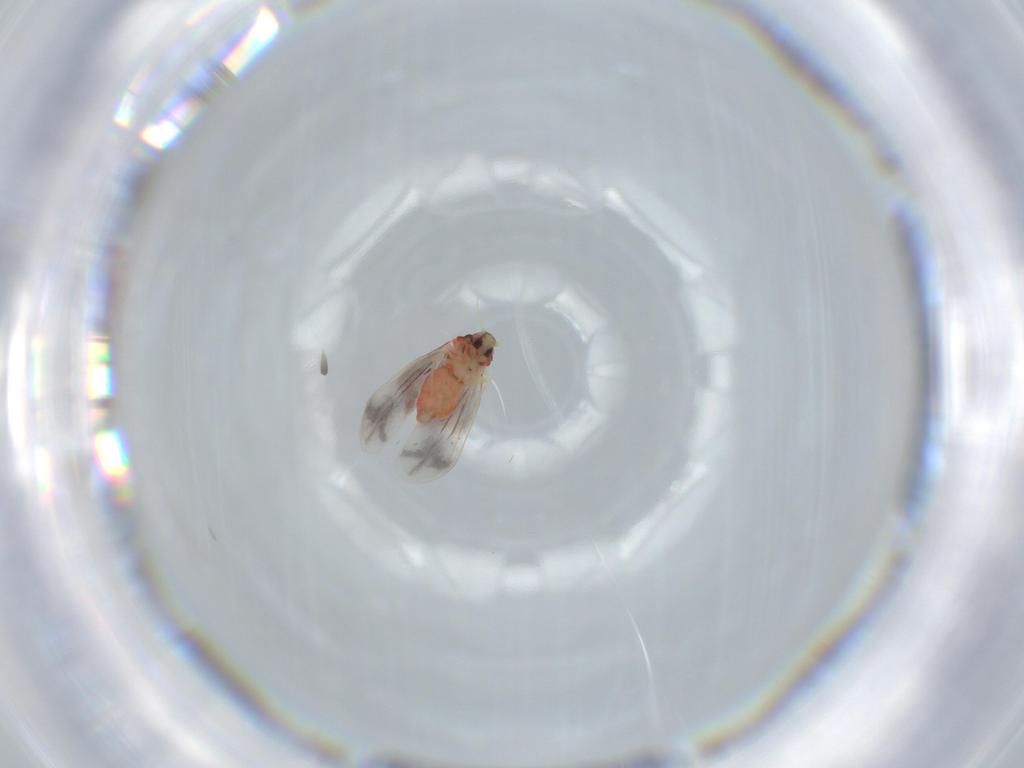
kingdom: Animalia
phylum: Arthropoda
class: Insecta
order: Hemiptera
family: Aleyrodidae
